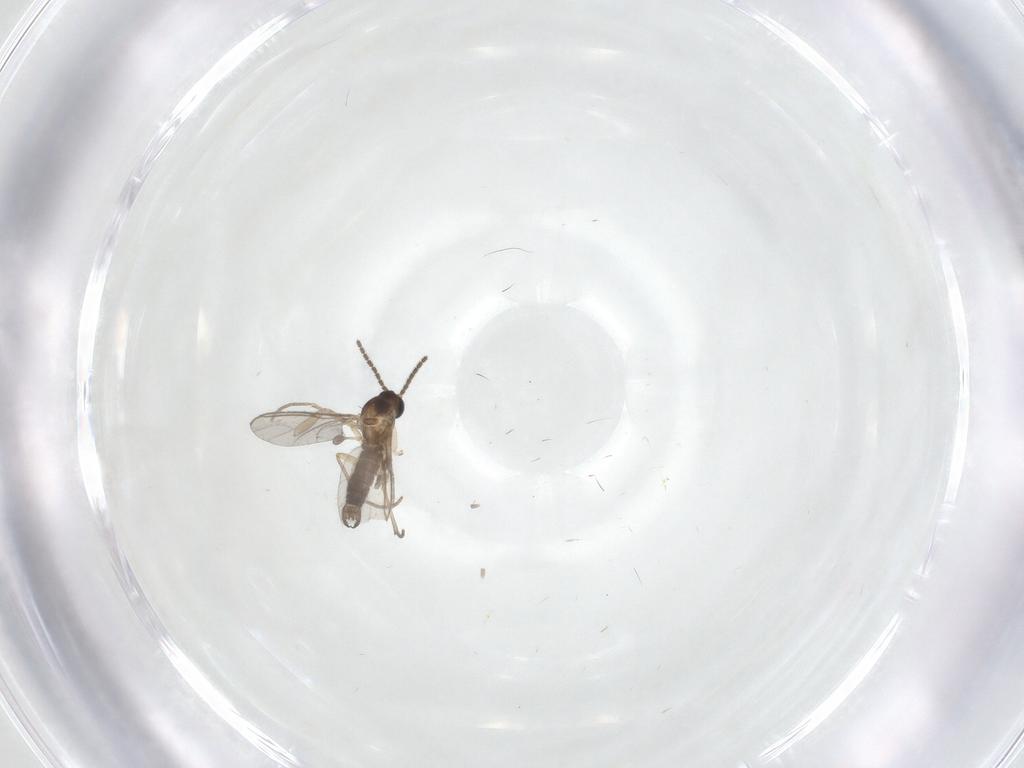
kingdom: Animalia
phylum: Arthropoda
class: Insecta
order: Diptera
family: Sciaridae
